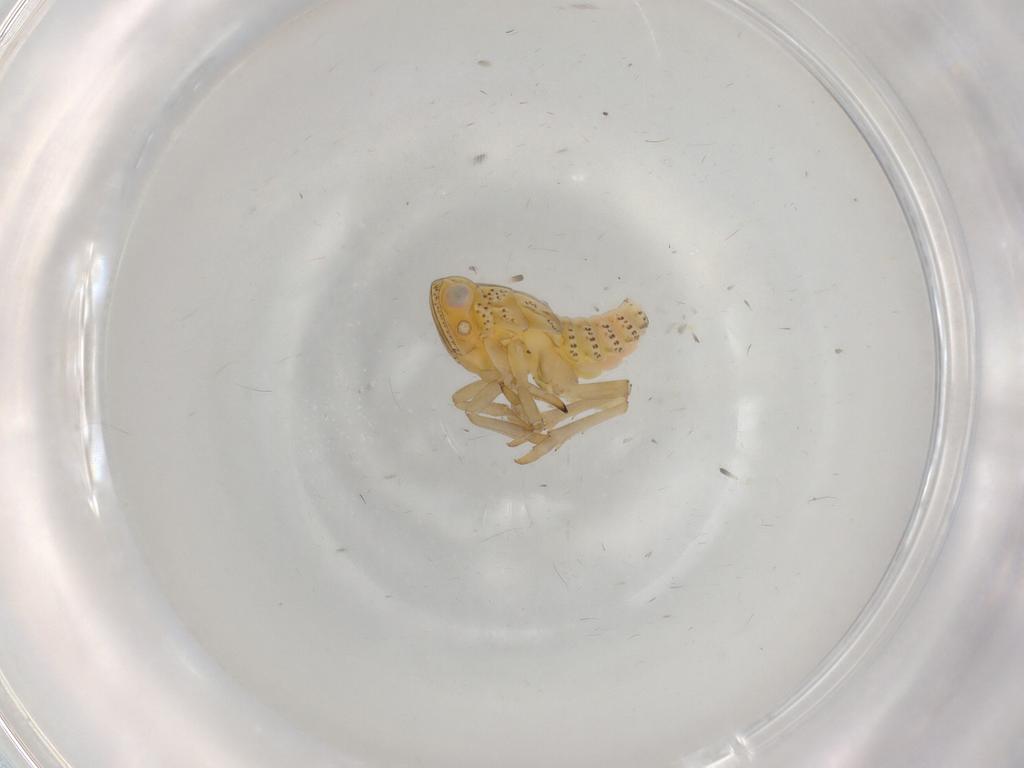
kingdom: Animalia
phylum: Arthropoda
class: Insecta
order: Hemiptera
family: Tropiduchidae
